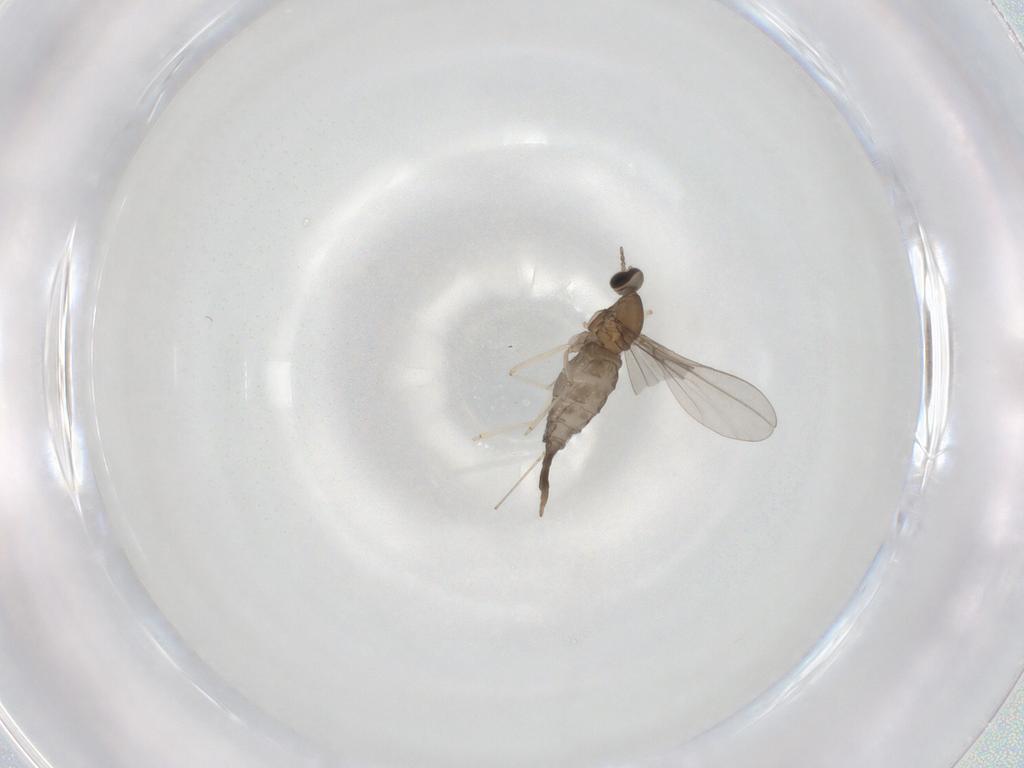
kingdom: Animalia
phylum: Arthropoda
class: Insecta
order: Diptera
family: Cecidomyiidae
